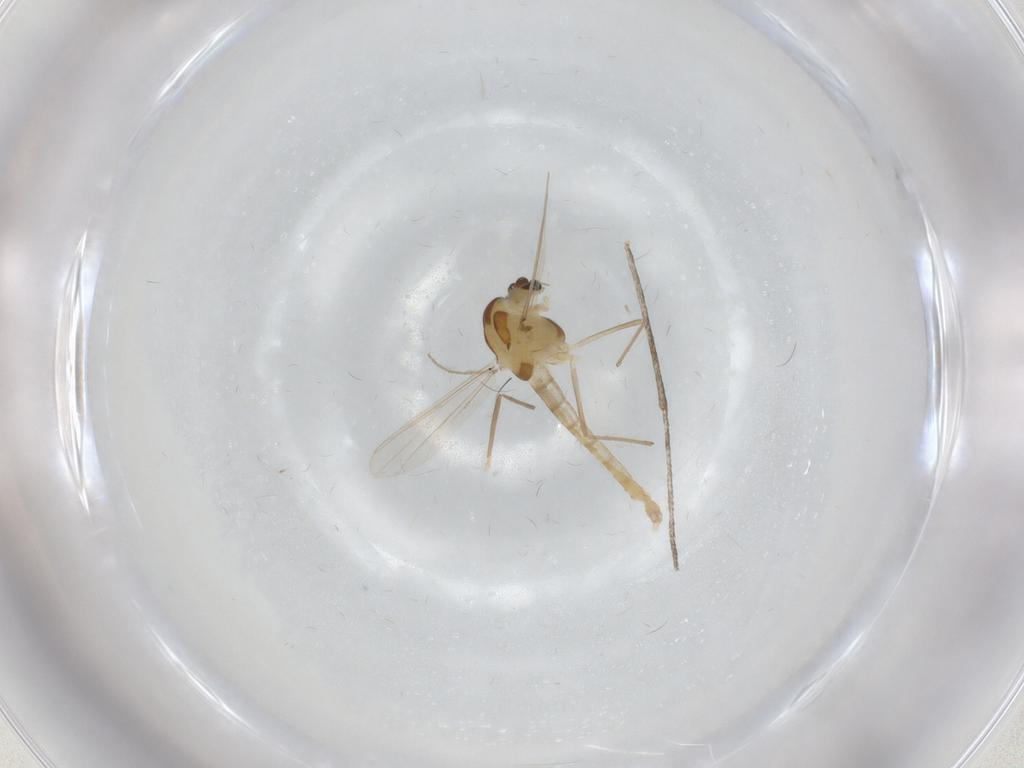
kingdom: Animalia
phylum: Arthropoda
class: Insecta
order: Diptera
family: Chironomidae
